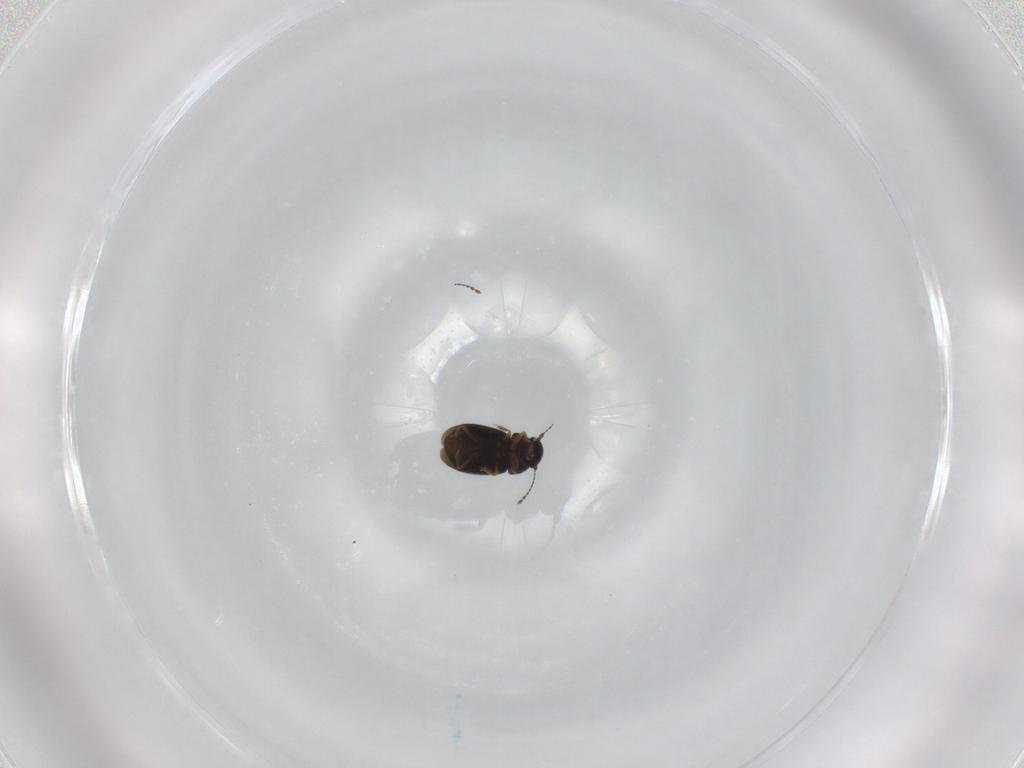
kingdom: Animalia
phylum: Arthropoda
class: Insecta
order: Coleoptera
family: Ptiliidae
